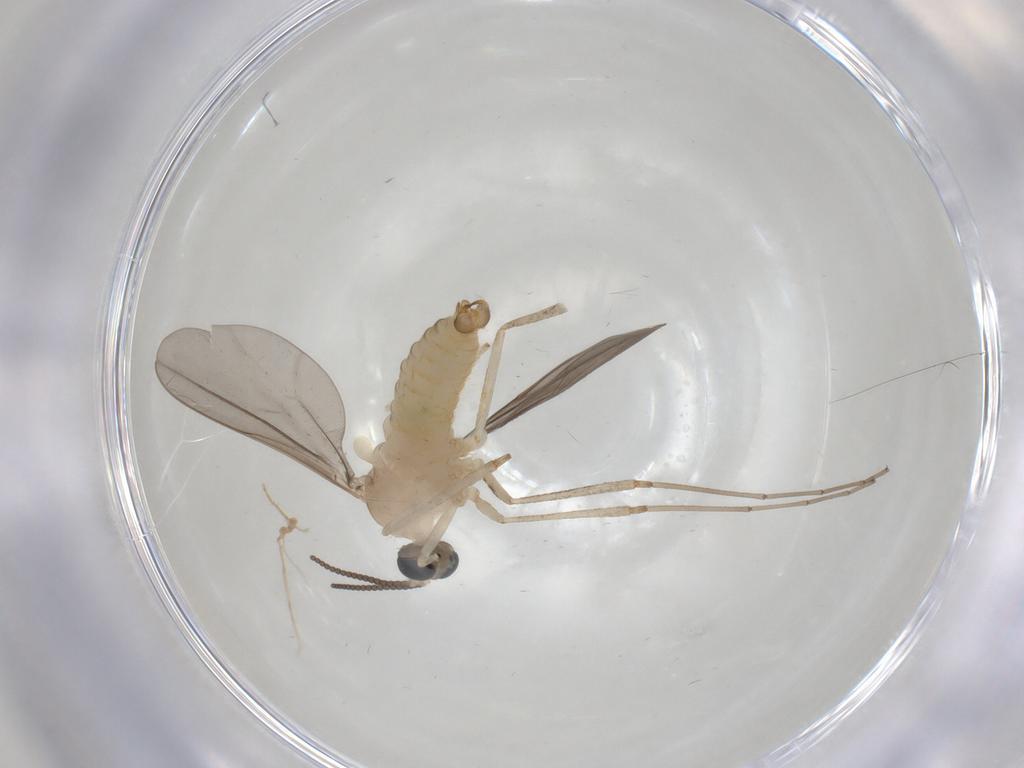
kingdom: Animalia
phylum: Arthropoda
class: Insecta
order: Diptera
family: Cecidomyiidae
